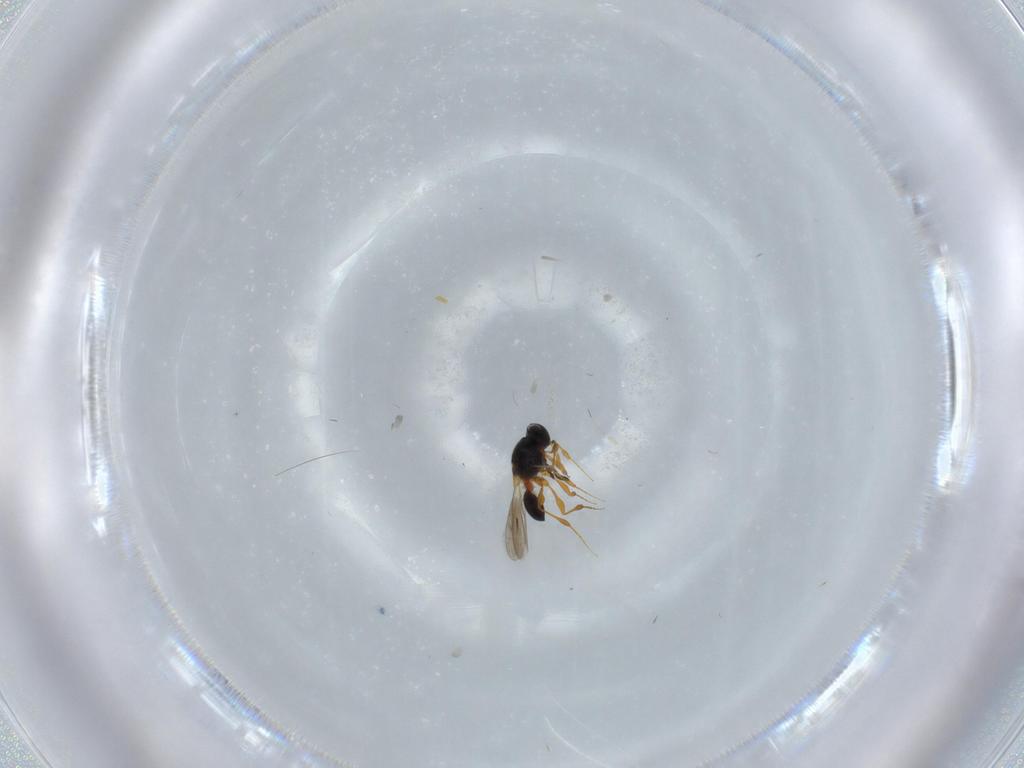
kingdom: Animalia
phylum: Arthropoda
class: Insecta
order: Hymenoptera
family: Platygastridae
